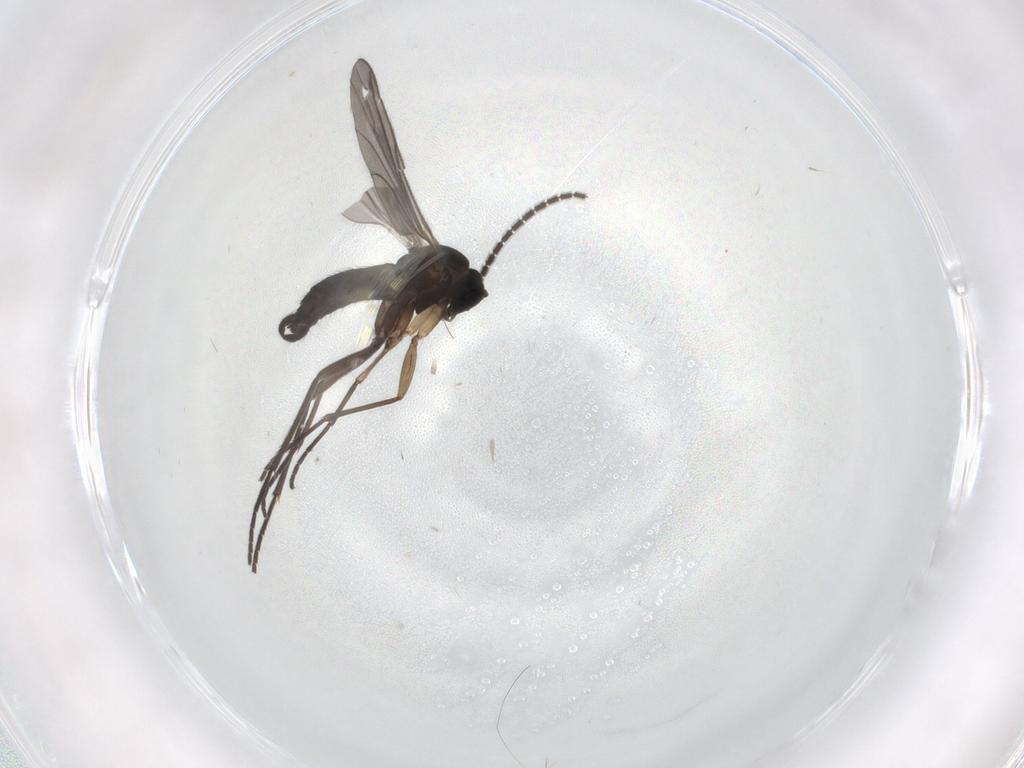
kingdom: Animalia
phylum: Arthropoda
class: Insecta
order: Diptera
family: Sciaridae
